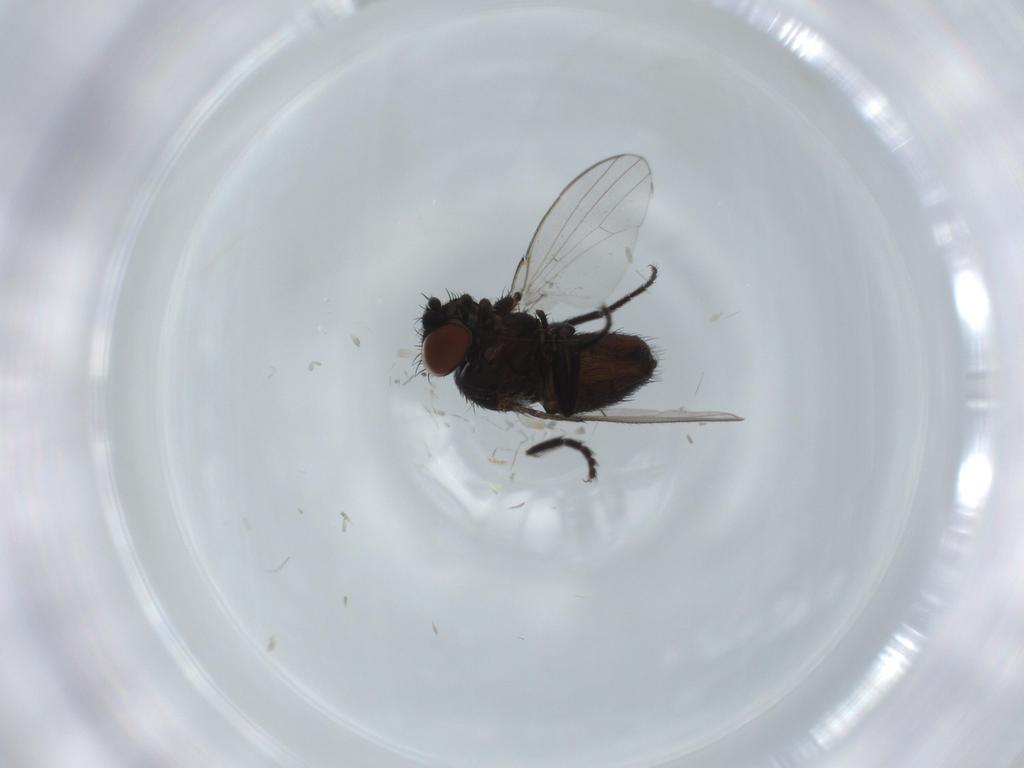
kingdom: Animalia
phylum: Arthropoda
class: Insecta
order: Diptera
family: Milichiidae
